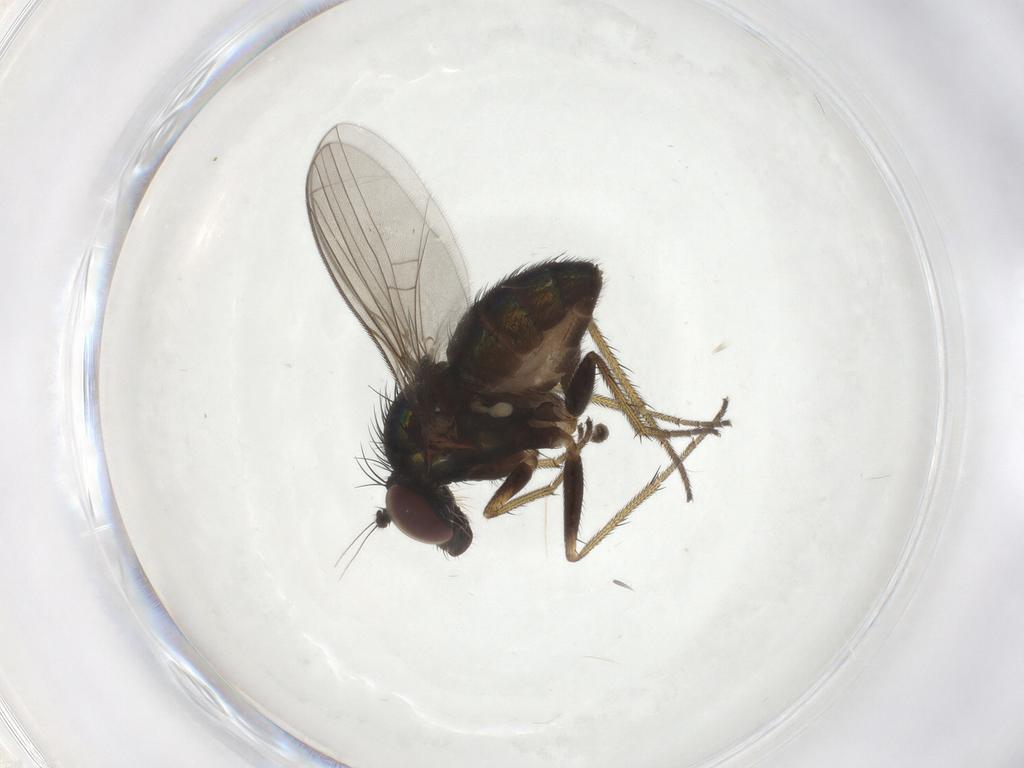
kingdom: Animalia
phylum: Arthropoda
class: Insecta
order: Diptera
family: Cecidomyiidae
